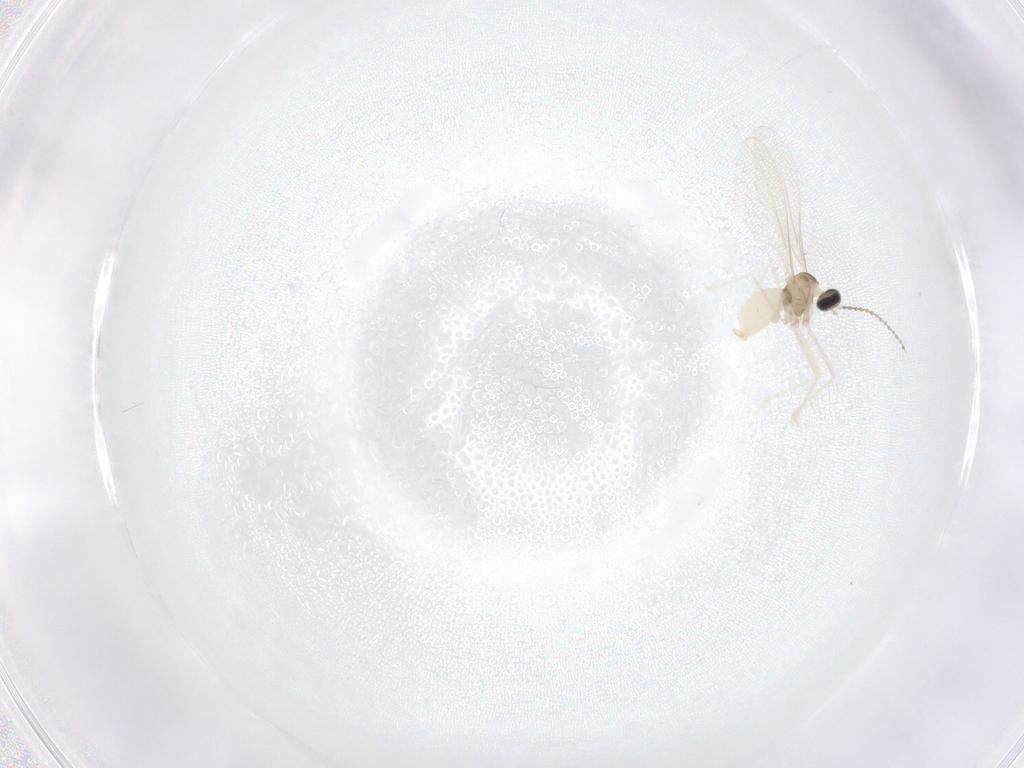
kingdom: Animalia
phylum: Arthropoda
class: Insecta
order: Diptera
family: Cecidomyiidae
